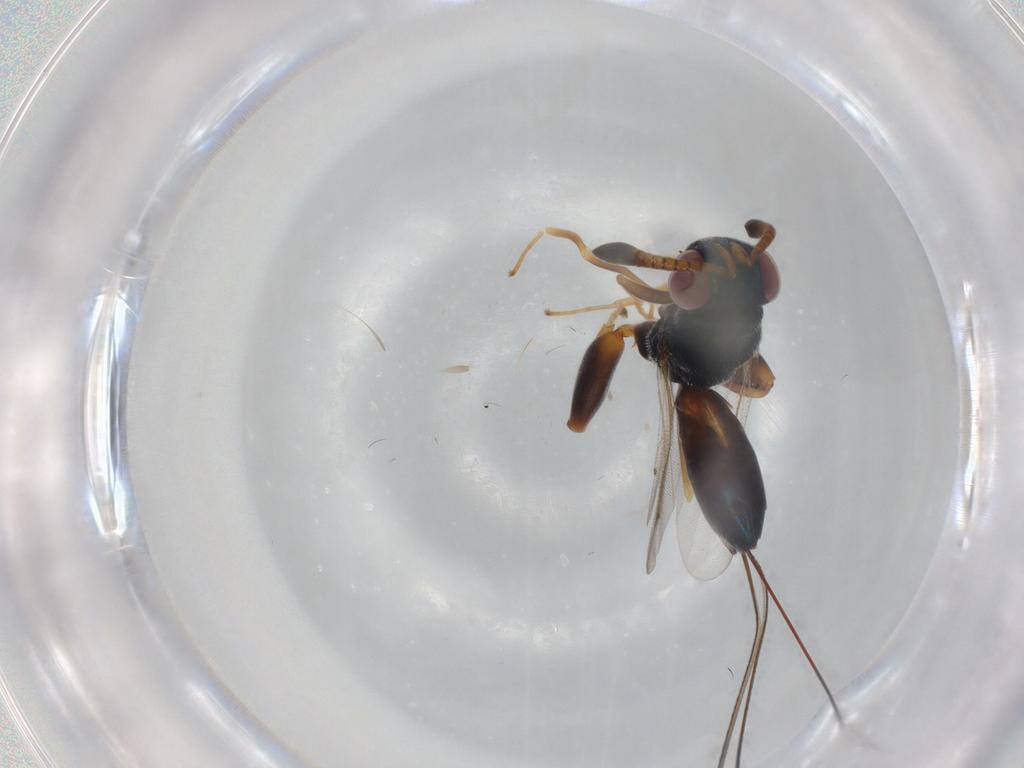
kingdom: Animalia
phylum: Arthropoda
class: Insecta
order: Hymenoptera
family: Torymidae
